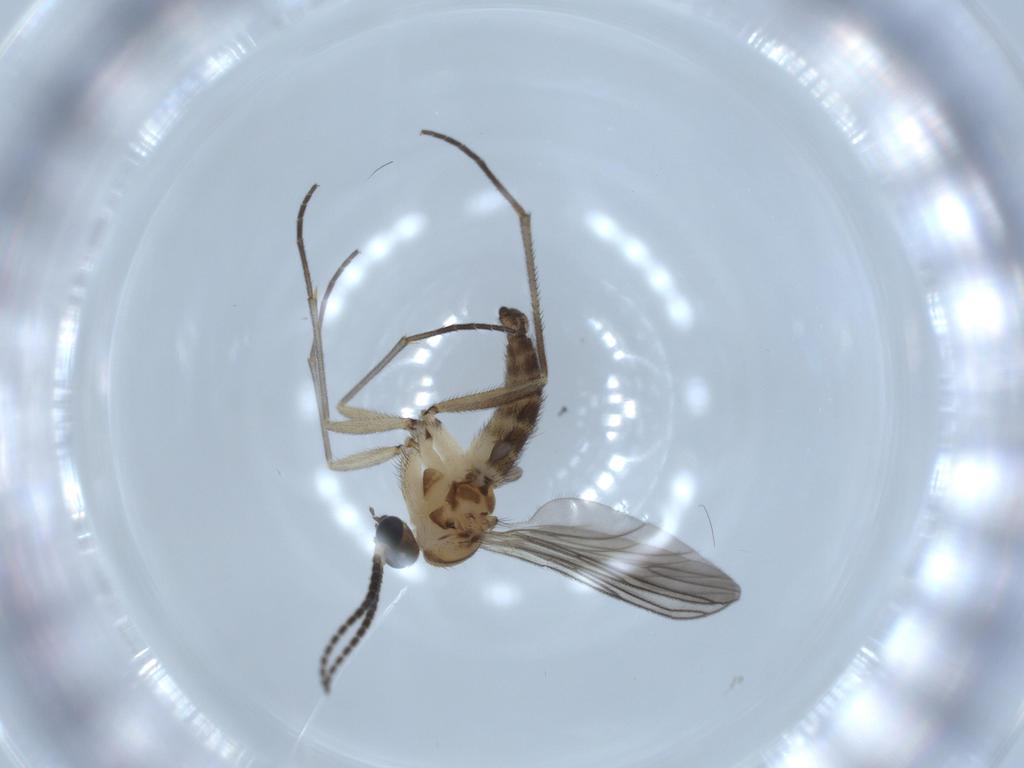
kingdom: Animalia
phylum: Arthropoda
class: Insecta
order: Diptera
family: Sciaridae
